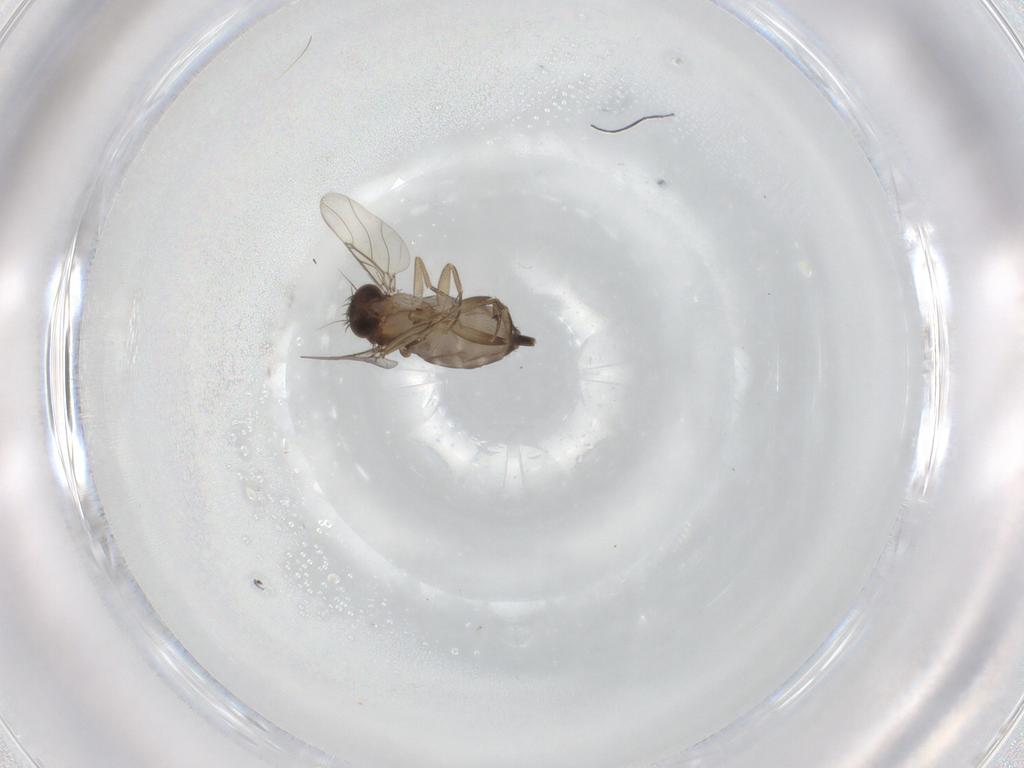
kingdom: Animalia
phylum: Arthropoda
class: Insecta
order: Diptera
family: Phoridae
